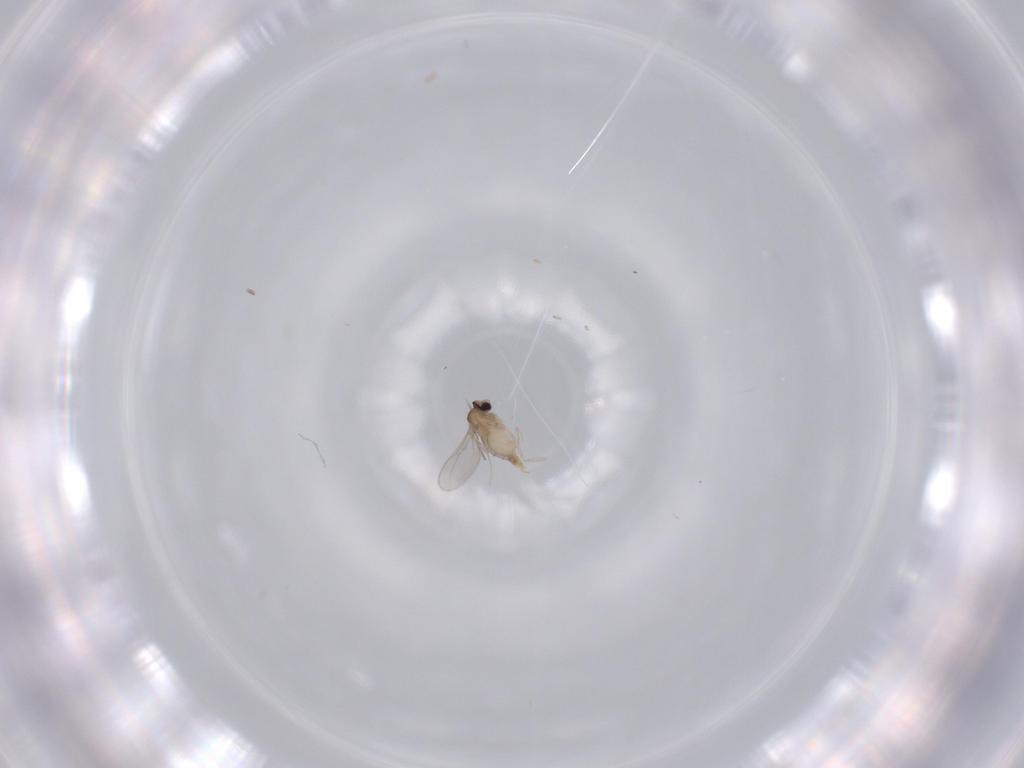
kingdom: Animalia
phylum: Arthropoda
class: Insecta
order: Diptera
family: Cecidomyiidae
